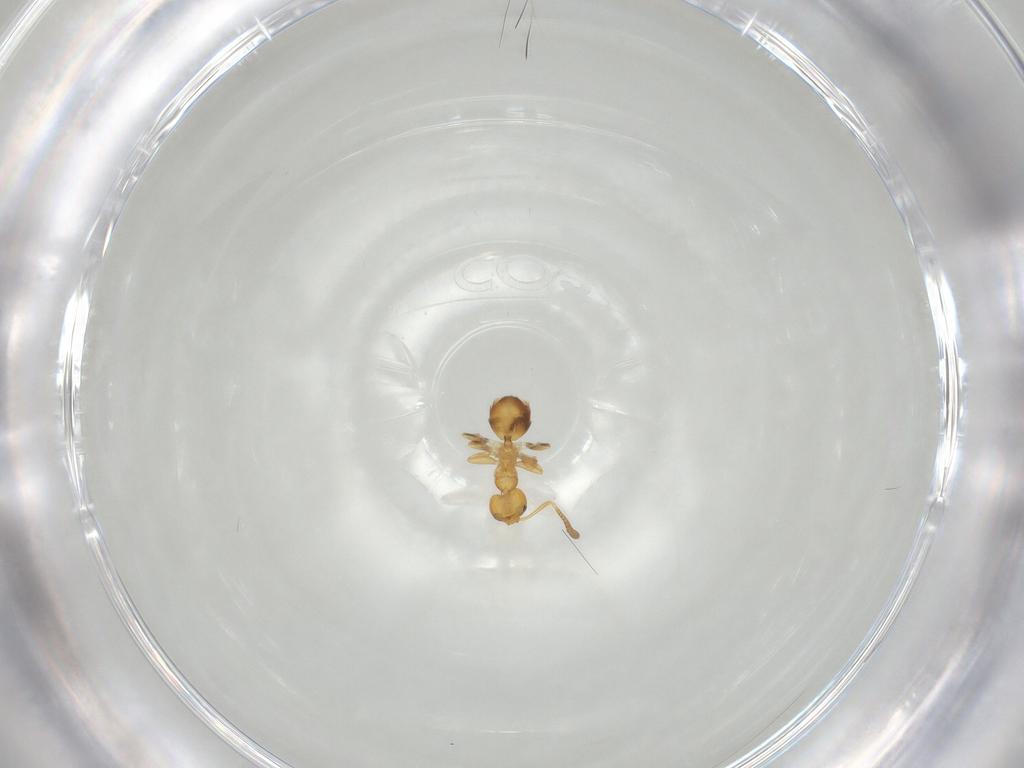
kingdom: Animalia
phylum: Arthropoda
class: Insecta
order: Hymenoptera
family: Formicidae
